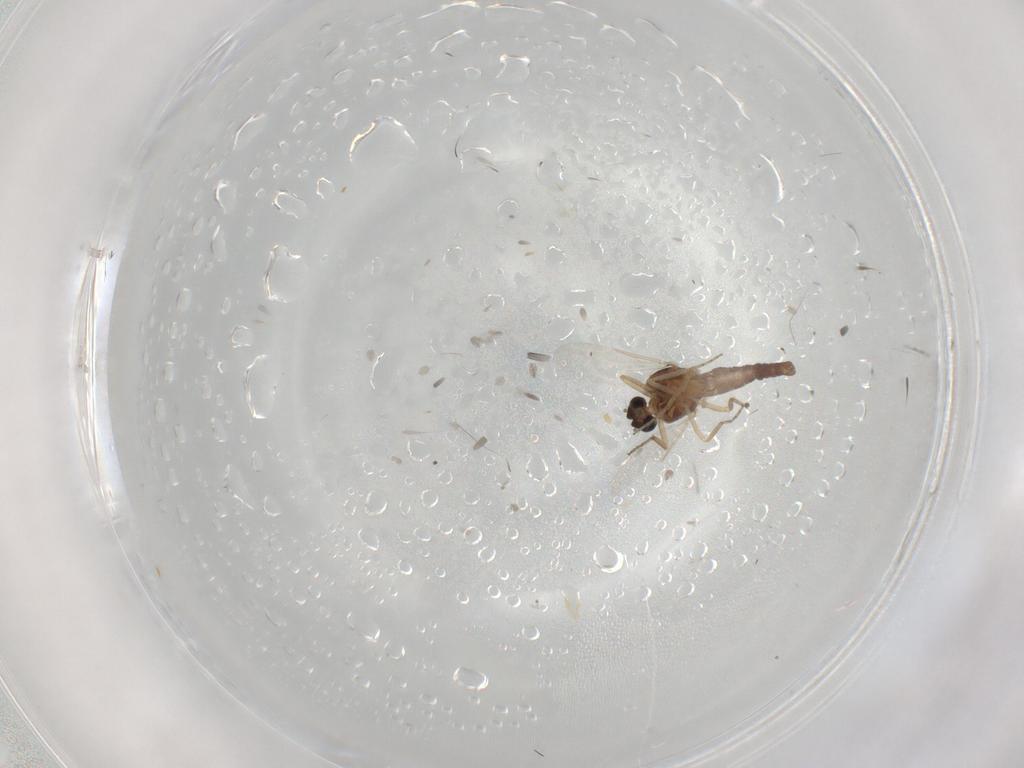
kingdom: Animalia
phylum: Arthropoda
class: Insecta
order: Diptera
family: Ceratopogonidae
